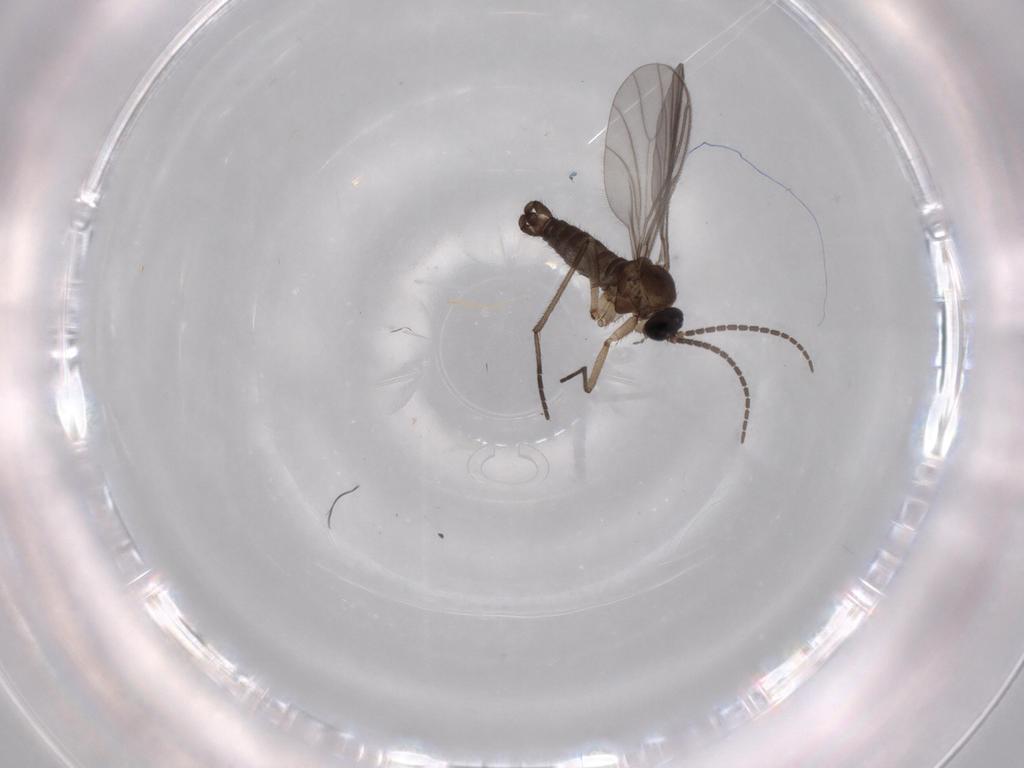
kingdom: Animalia
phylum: Arthropoda
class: Insecta
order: Diptera
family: Sciaridae
